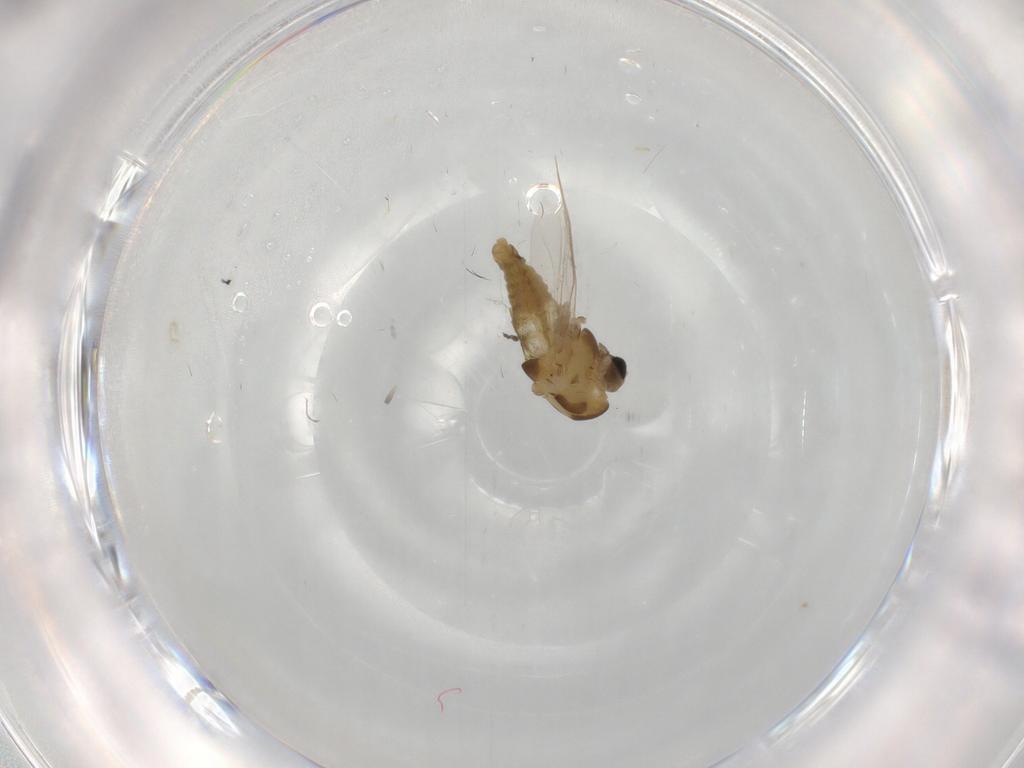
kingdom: Animalia
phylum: Arthropoda
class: Insecta
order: Diptera
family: Chironomidae
